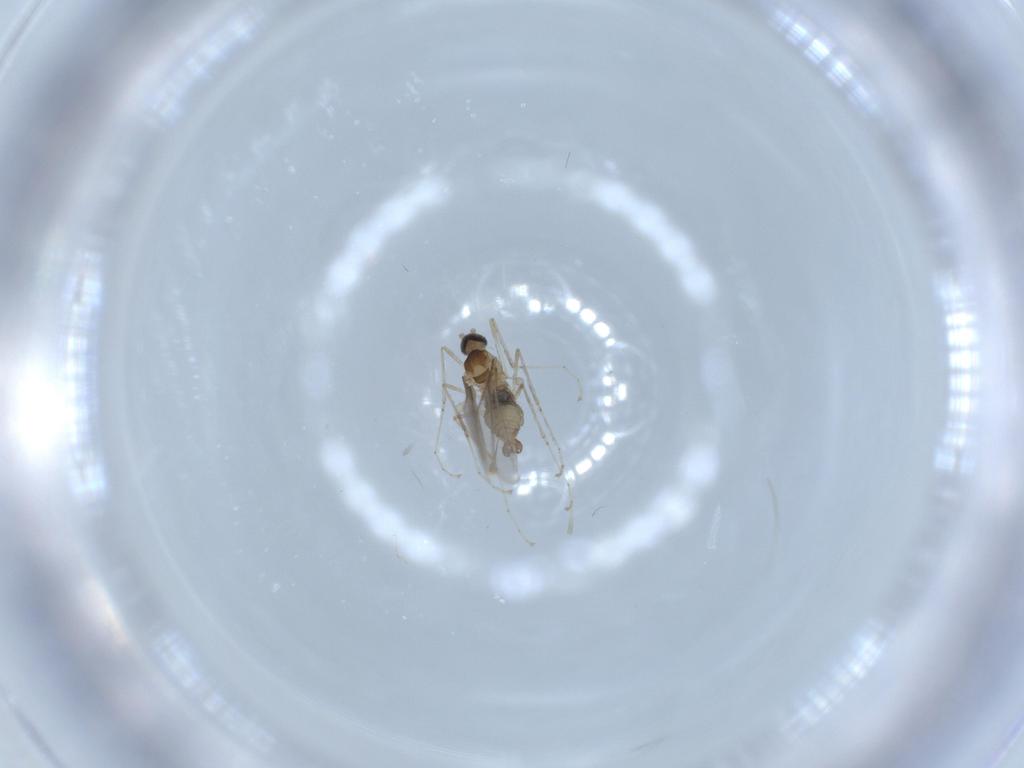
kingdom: Animalia
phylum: Arthropoda
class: Insecta
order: Diptera
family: Cecidomyiidae
